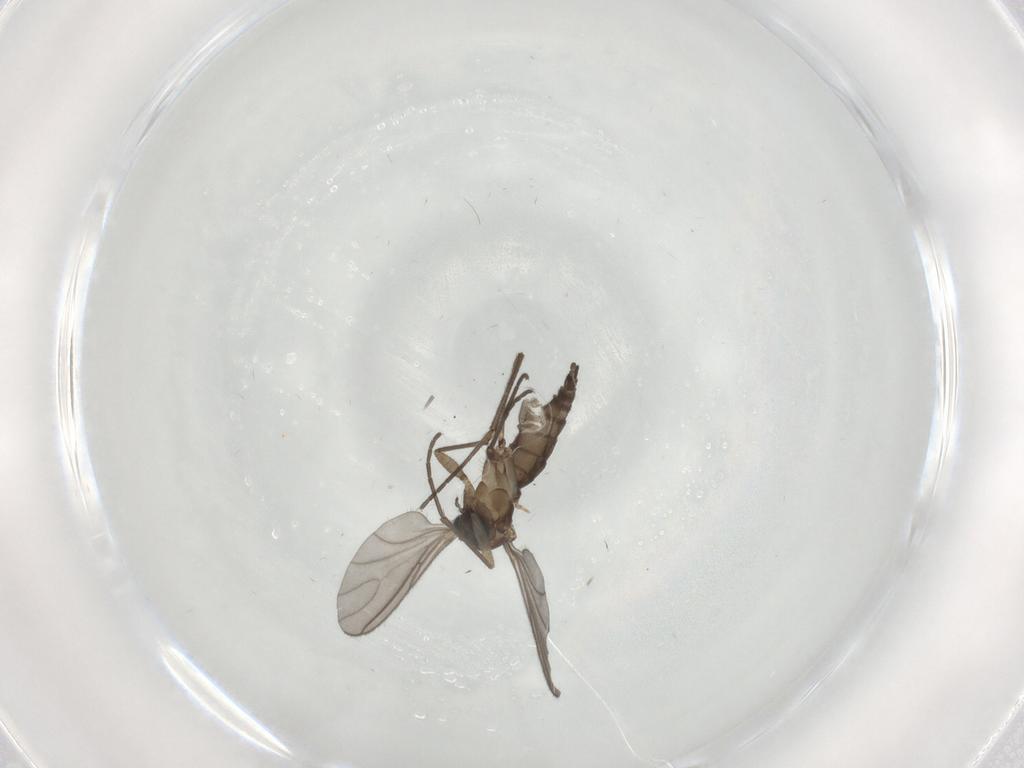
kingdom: Animalia
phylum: Arthropoda
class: Insecta
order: Diptera
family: Sciaridae
